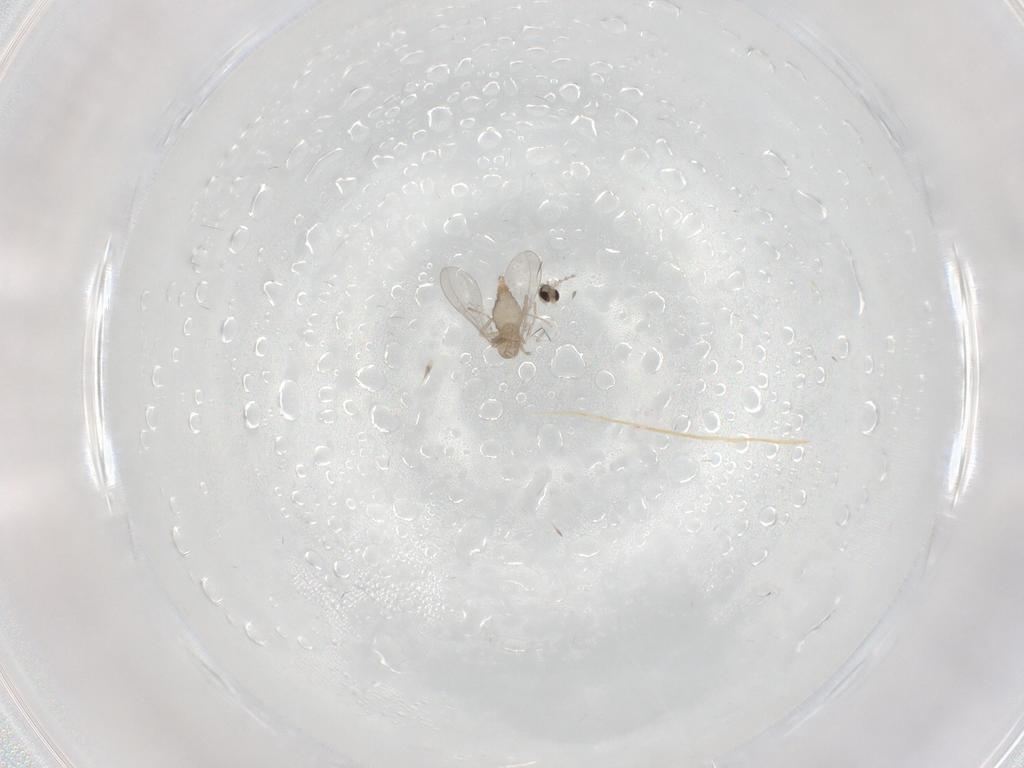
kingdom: Animalia
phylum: Arthropoda
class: Insecta
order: Diptera
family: Cecidomyiidae
